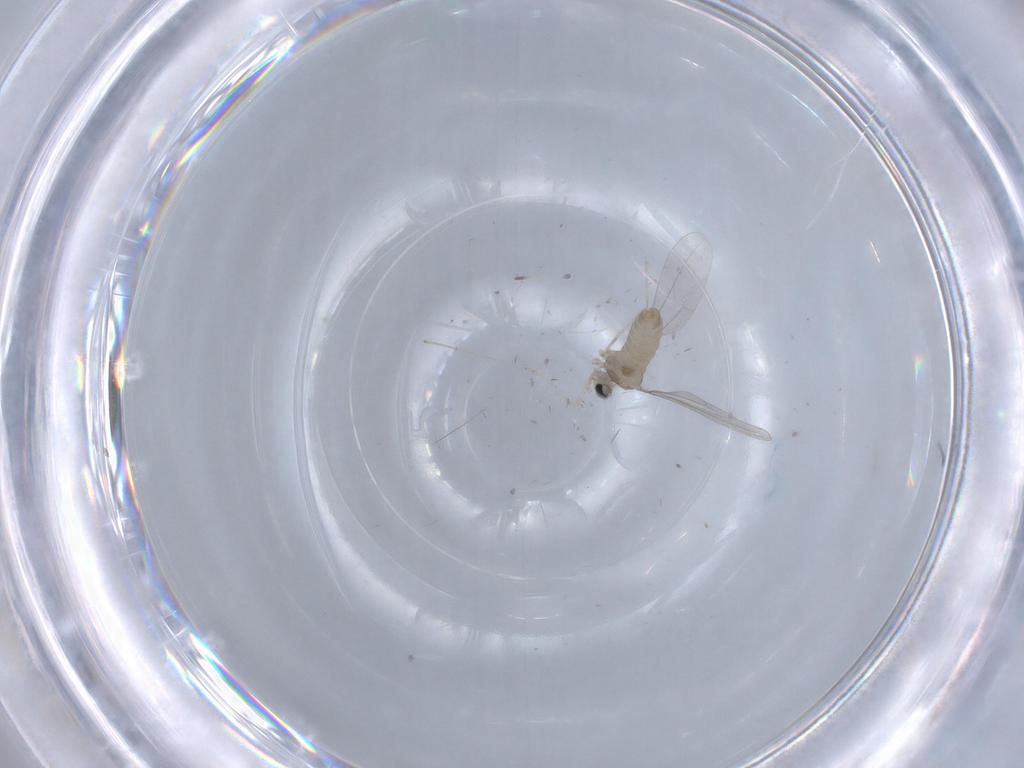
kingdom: Animalia
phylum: Arthropoda
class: Insecta
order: Diptera
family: Cecidomyiidae
